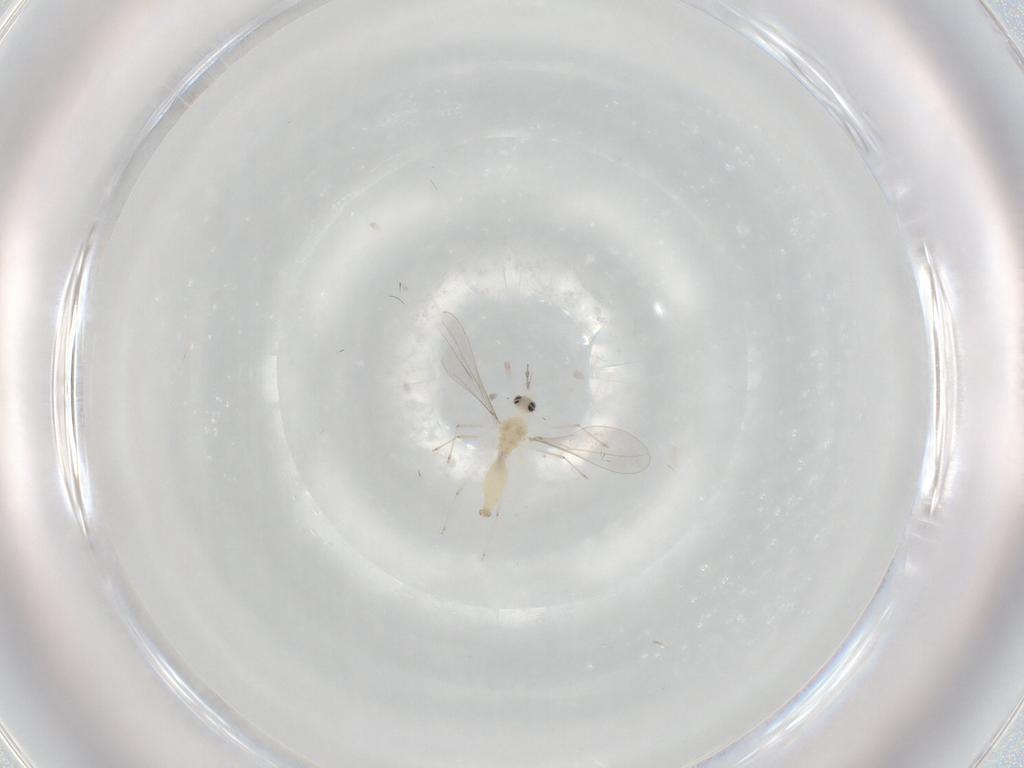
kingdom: Animalia
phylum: Arthropoda
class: Insecta
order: Diptera
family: Cecidomyiidae
